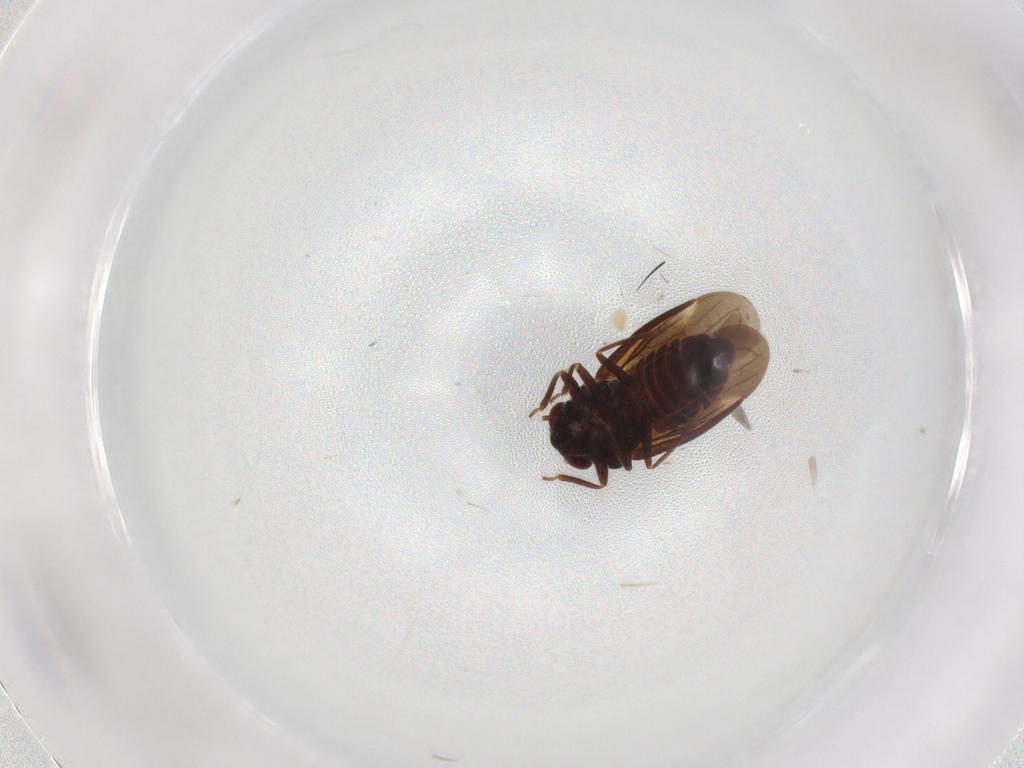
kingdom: Animalia
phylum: Arthropoda
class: Insecta
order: Hemiptera
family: Schizopteridae
